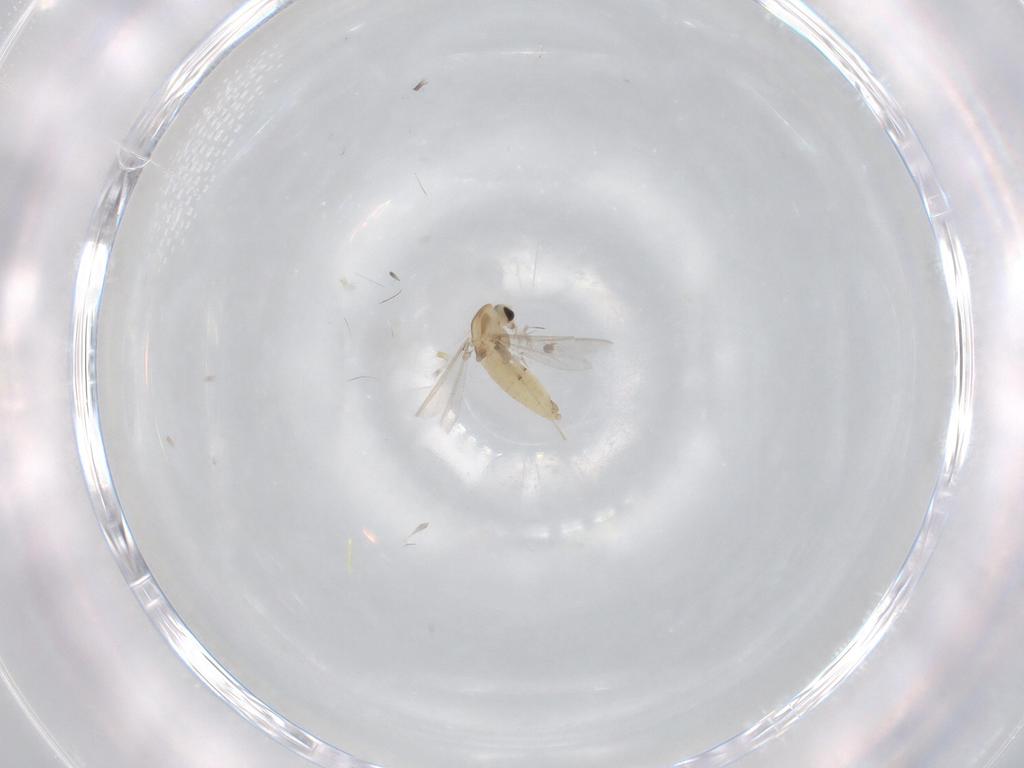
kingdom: Animalia
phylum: Arthropoda
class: Insecta
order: Diptera
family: Chironomidae
